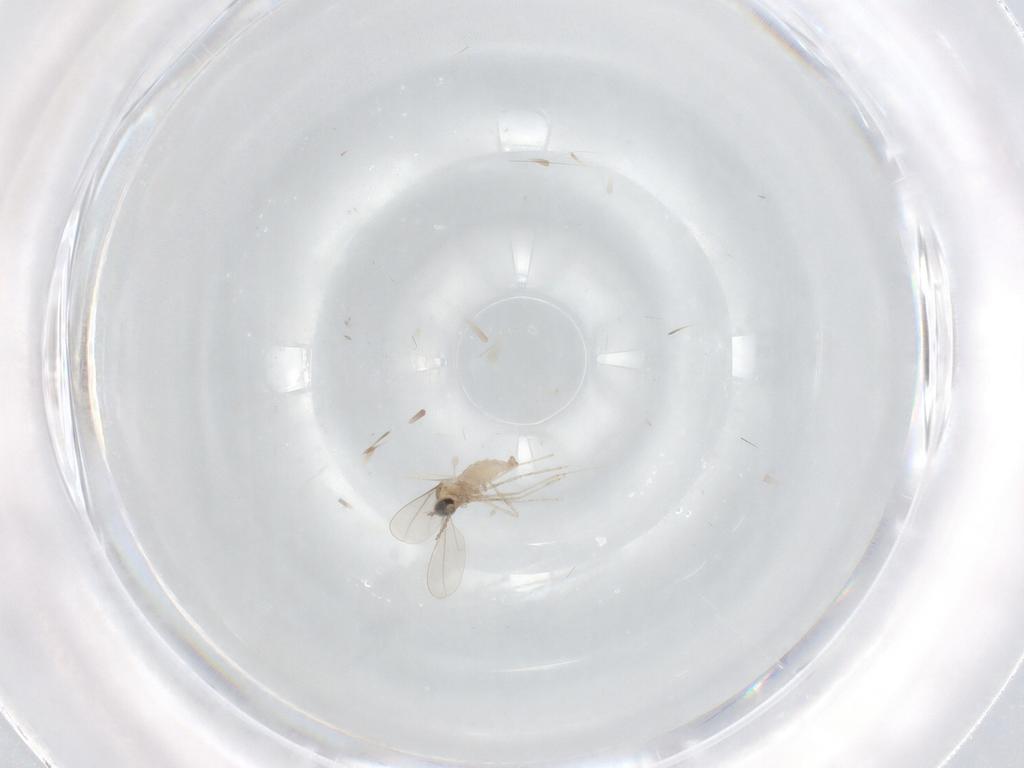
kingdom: Animalia
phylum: Arthropoda
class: Insecta
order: Diptera
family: Cecidomyiidae
